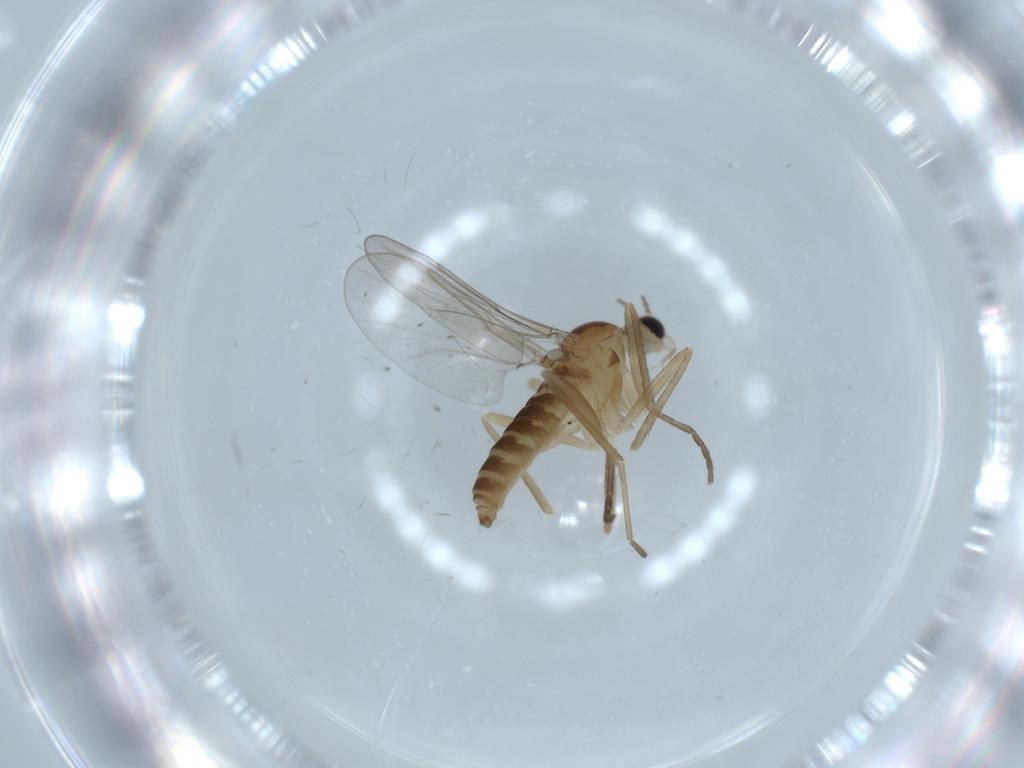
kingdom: Animalia
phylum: Arthropoda
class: Insecta
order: Diptera
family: Cecidomyiidae
